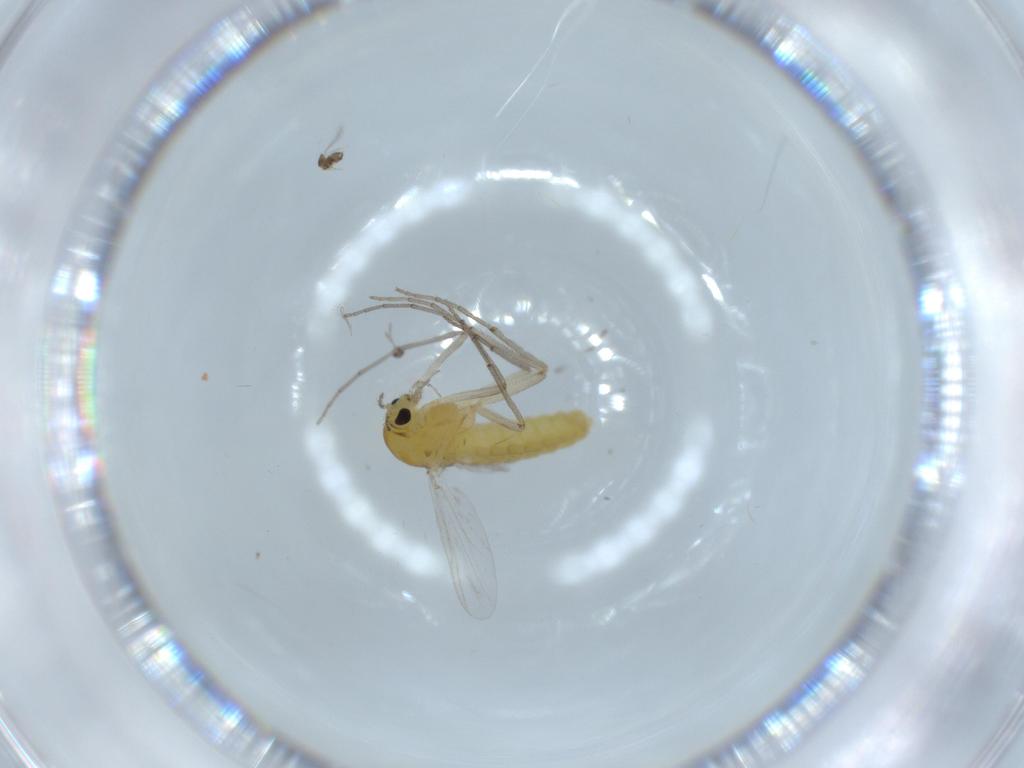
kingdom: Animalia
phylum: Arthropoda
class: Insecta
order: Diptera
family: Chironomidae
